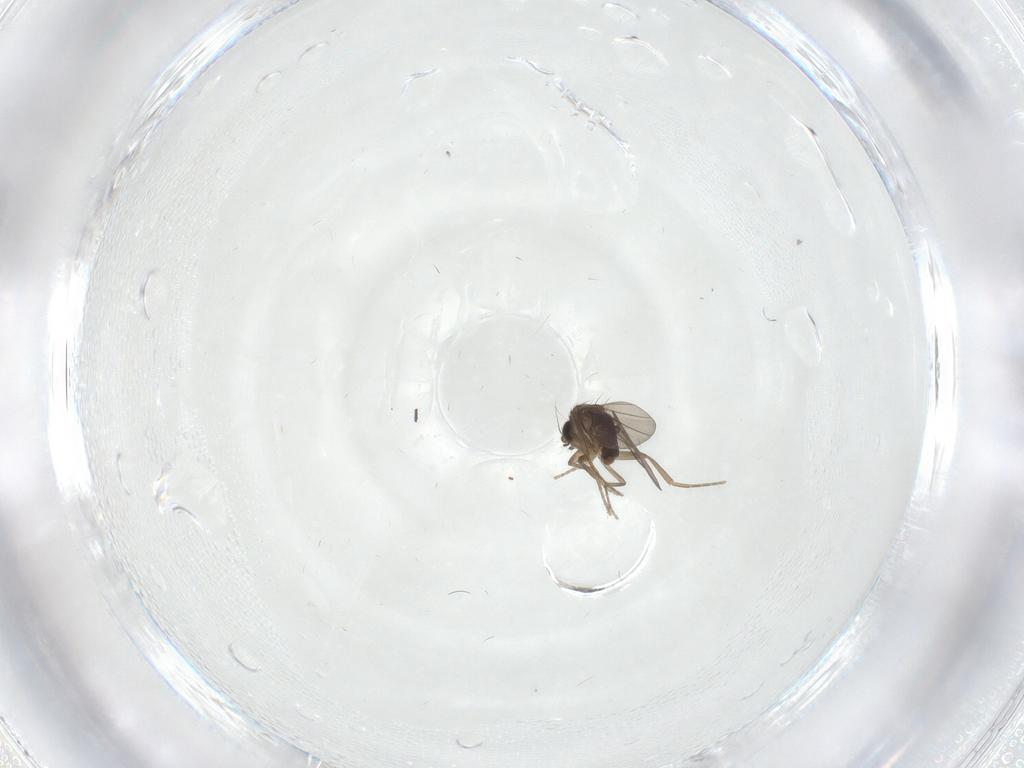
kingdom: Animalia
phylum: Arthropoda
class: Insecta
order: Diptera
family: Phoridae
